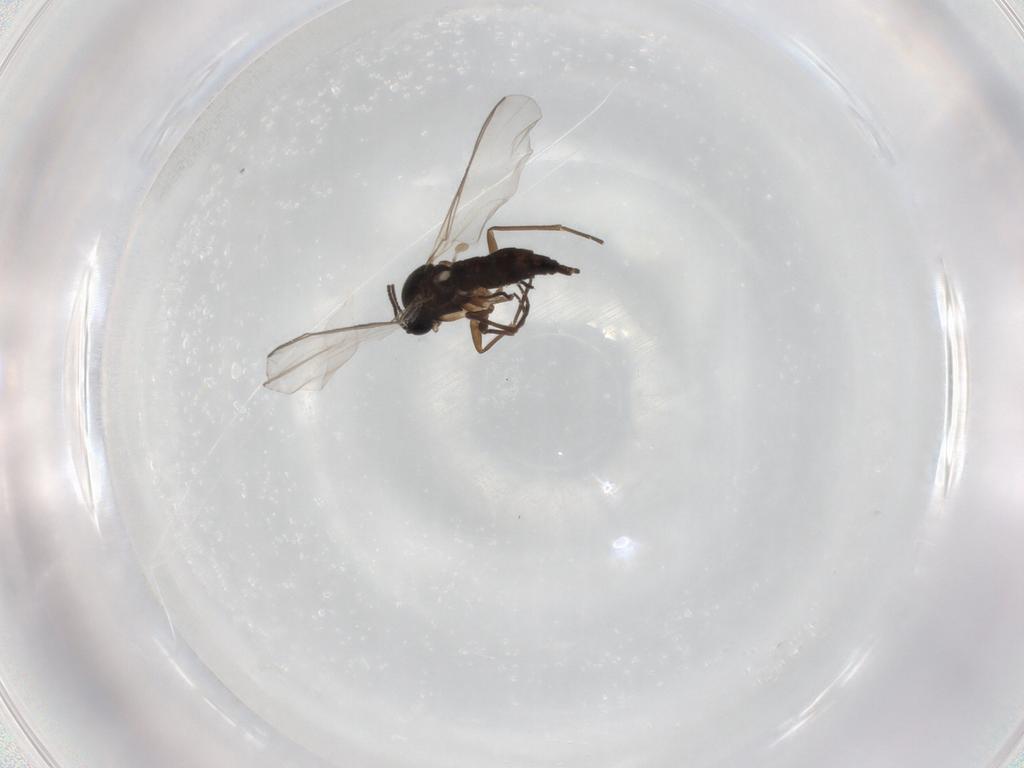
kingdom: Animalia
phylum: Arthropoda
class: Insecta
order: Diptera
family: Sciaridae
